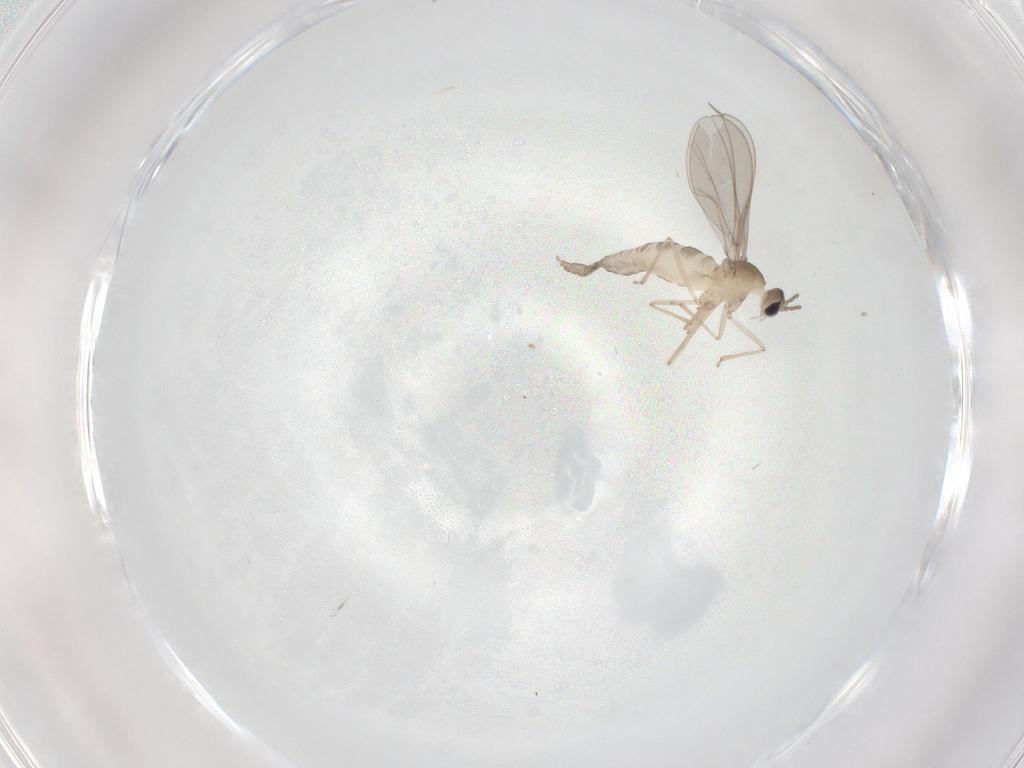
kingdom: Animalia
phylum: Arthropoda
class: Insecta
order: Diptera
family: Cecidomyiidae
